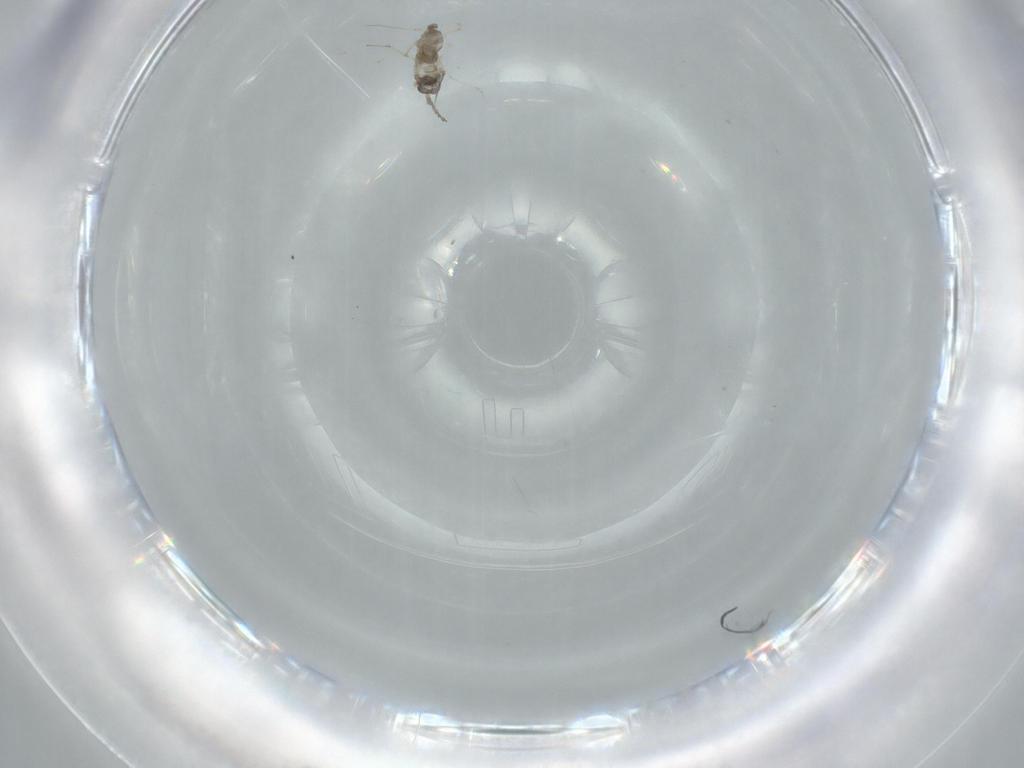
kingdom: Animalia
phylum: Arthropoda
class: Insecta
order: Diptera
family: Cecidomyiidae
